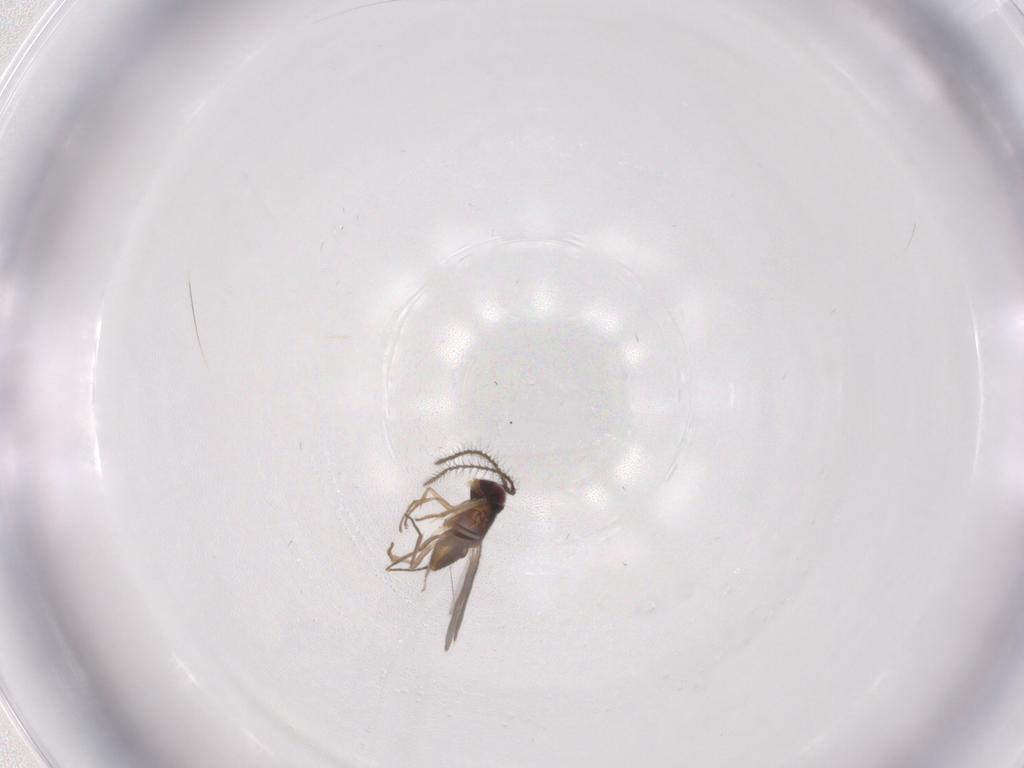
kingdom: Animalia
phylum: Arthropoda
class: Insecta
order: Hymenoptera
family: Encyrtidae
